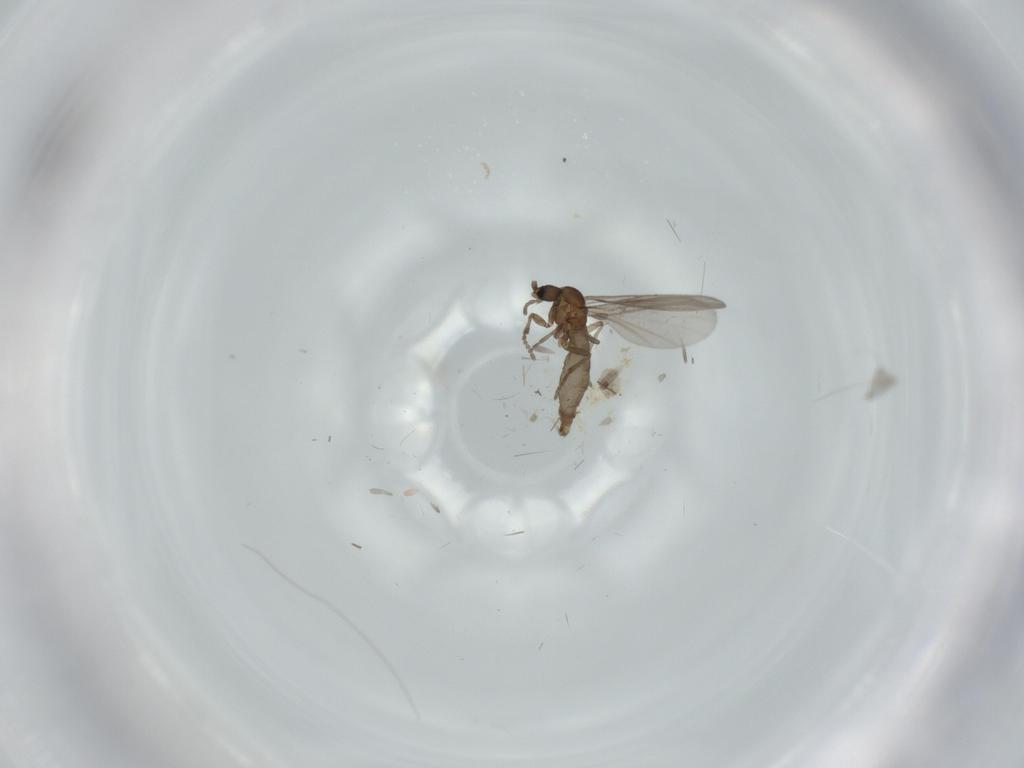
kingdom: Animalia
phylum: Arthropoda
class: Insecta
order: Diptera
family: Cecidomyiidae
